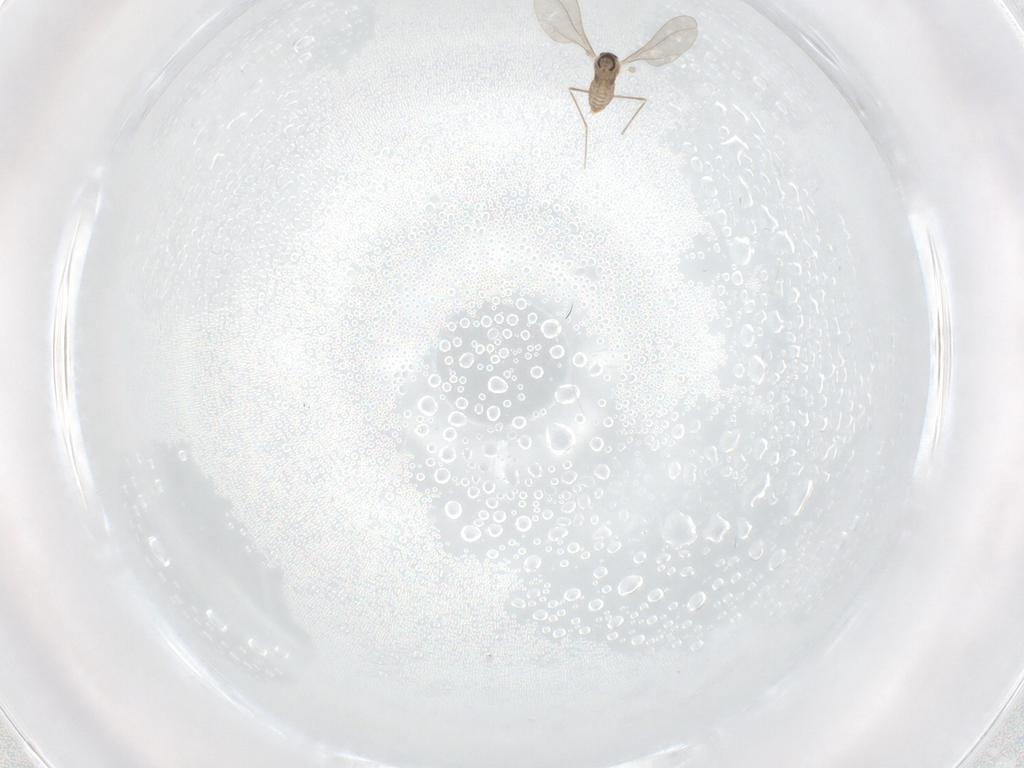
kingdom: Animalia
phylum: Arthropoda
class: Insecta
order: Diptera
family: Cecidomyiidae
